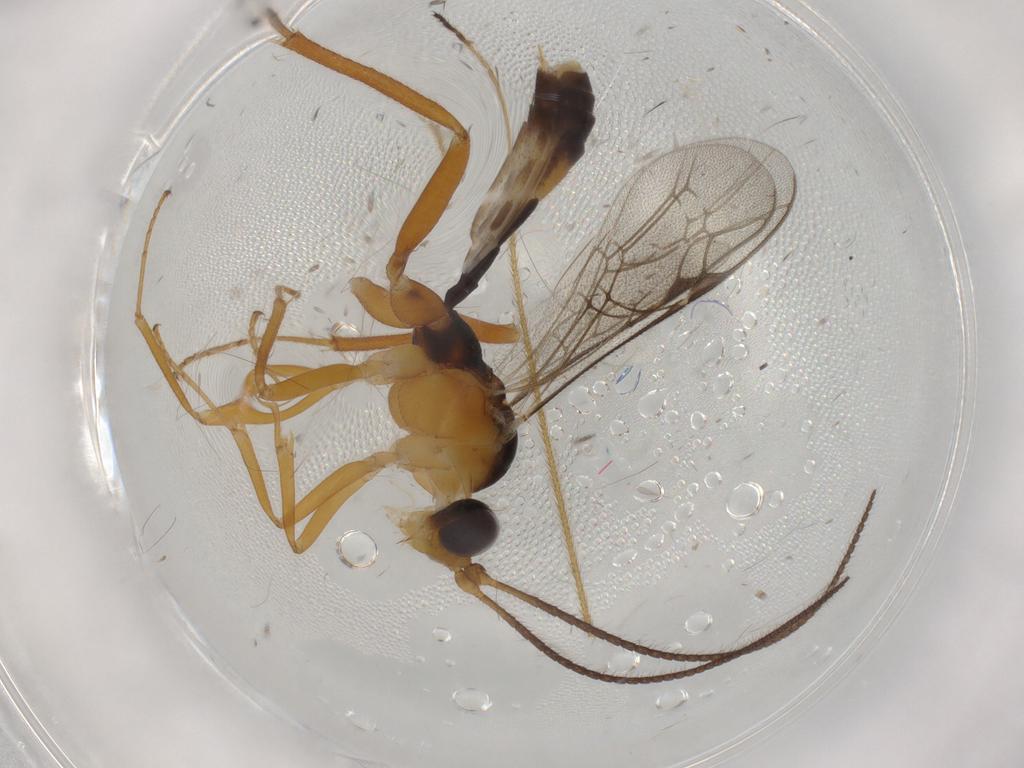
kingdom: Animalia
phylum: Arthropoda
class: Insecta
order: Hymenoptera
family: Ichneumonidae
